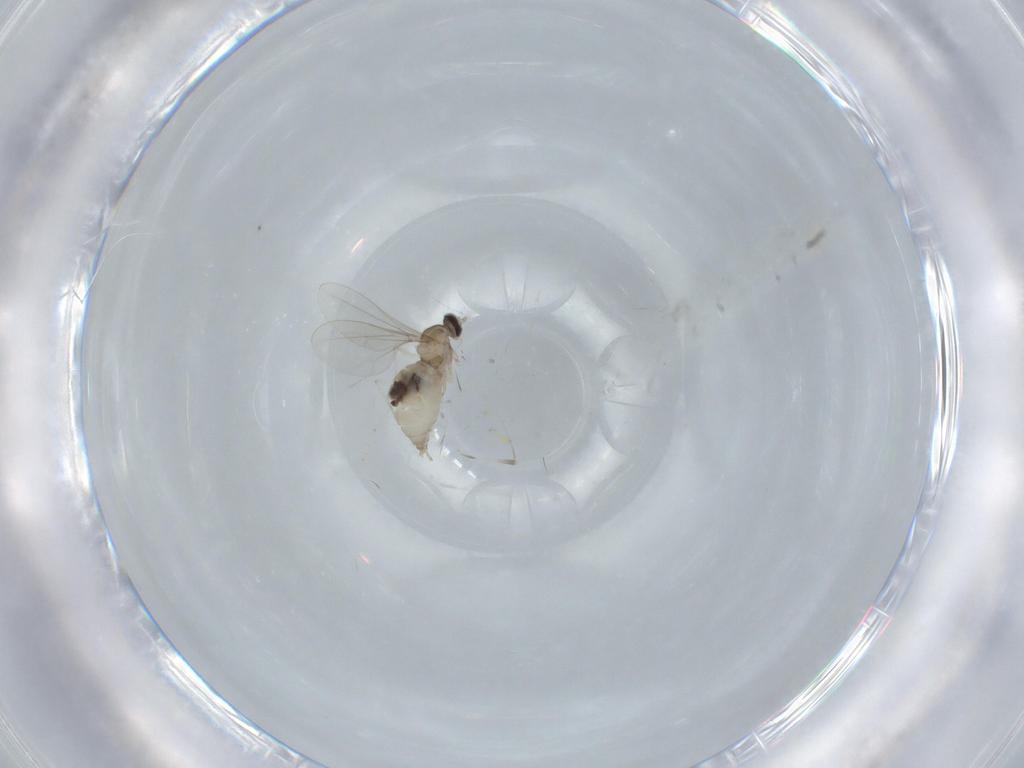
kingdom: Animalia
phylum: Arthropoda
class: Insecta
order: Diptera
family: Cecidomyiidae
